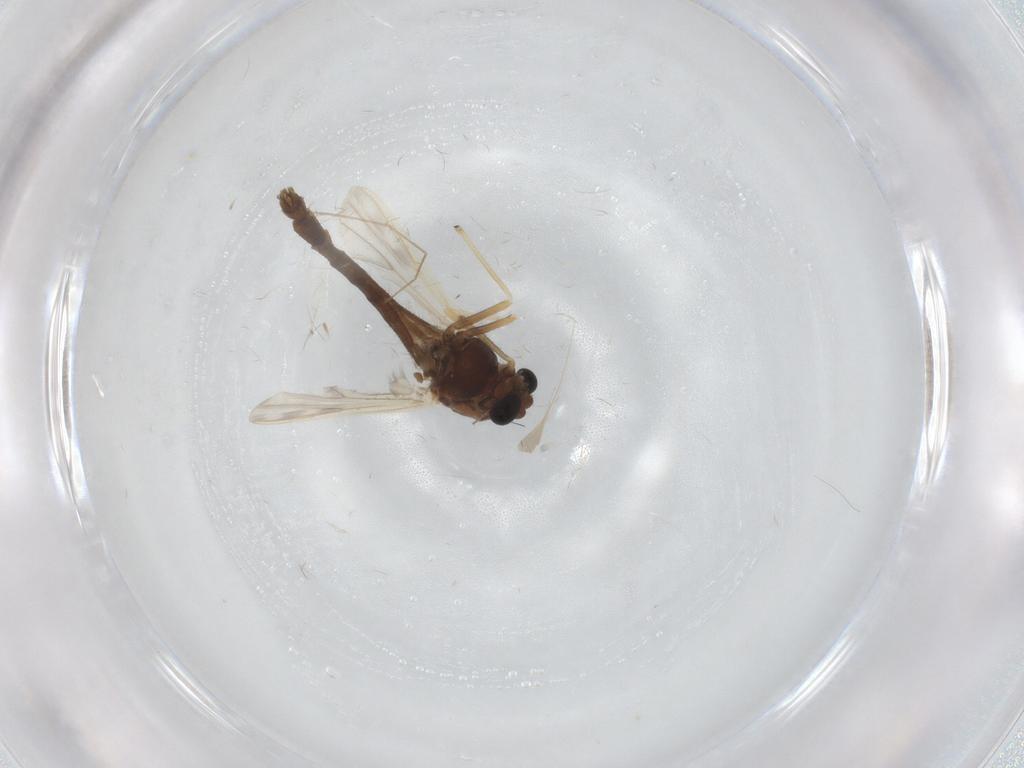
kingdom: Animalia
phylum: Arthropoda
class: Insecta
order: Diptera
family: Chironomidae
